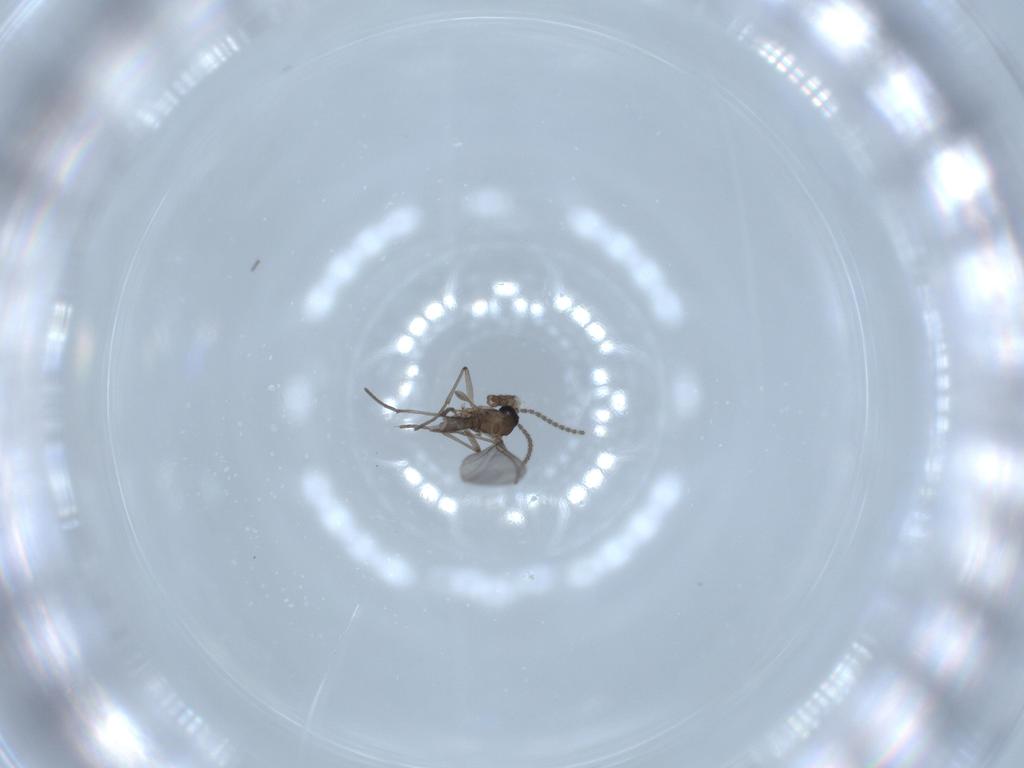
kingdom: Animalia
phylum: Arthropoda
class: Insecta
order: Diptera
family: Sciaridae
